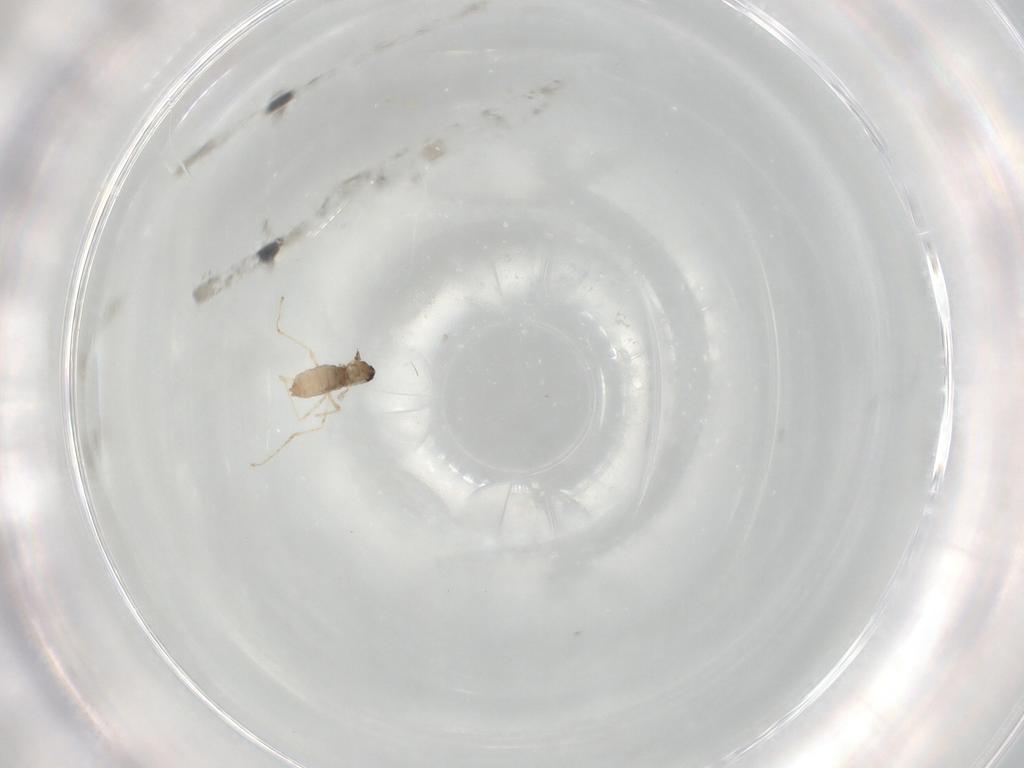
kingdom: Animalia
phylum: Arthropoda
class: Insecta
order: Diptera
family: Cecidomyiidae
